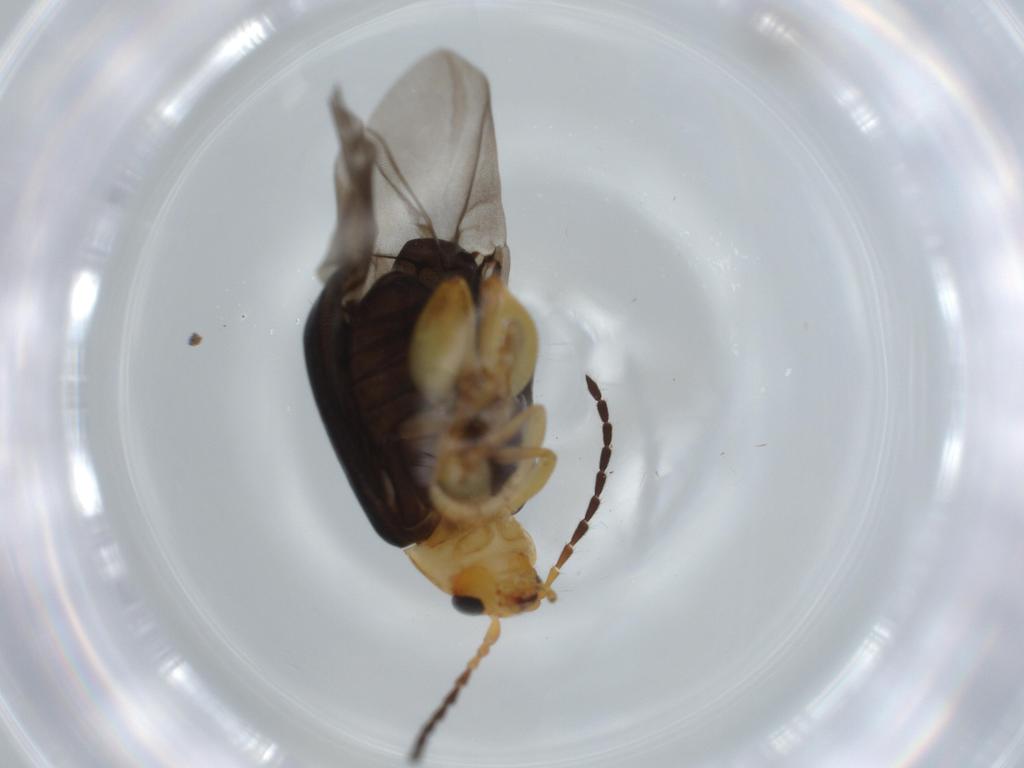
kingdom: Animalia
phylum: Arthropoda
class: Insecta
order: Coleoptera
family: Chrysomelidae
